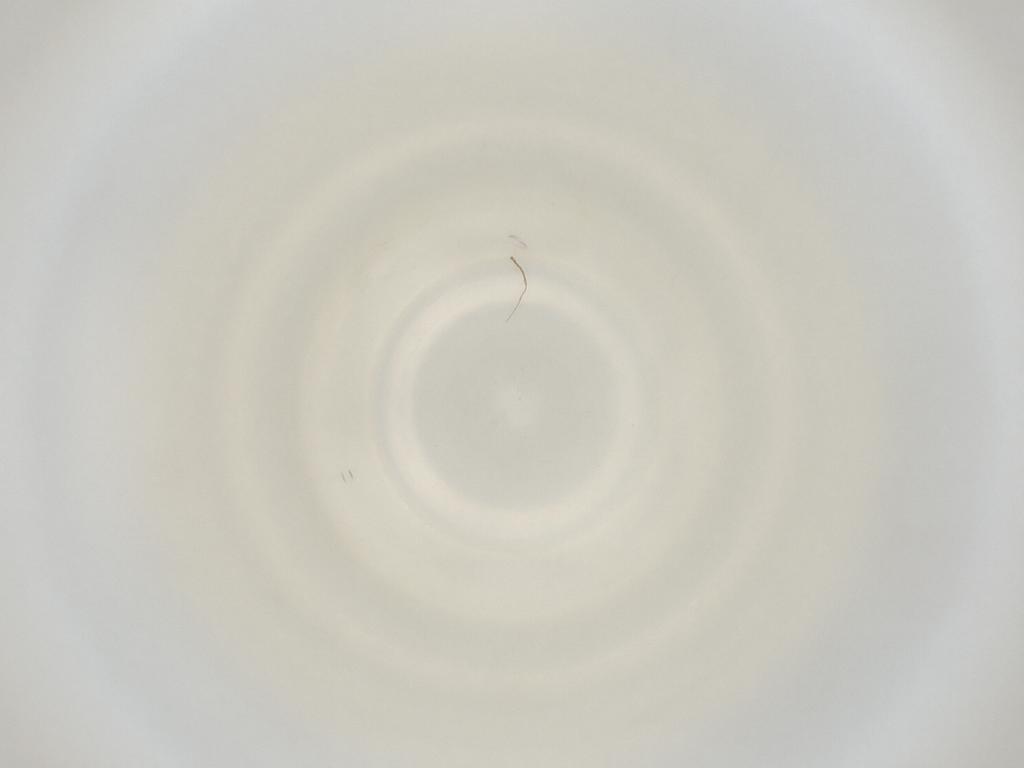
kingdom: Animalia
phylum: Arthropoda
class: Insecta
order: Diptera
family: Cecidomyiidae
